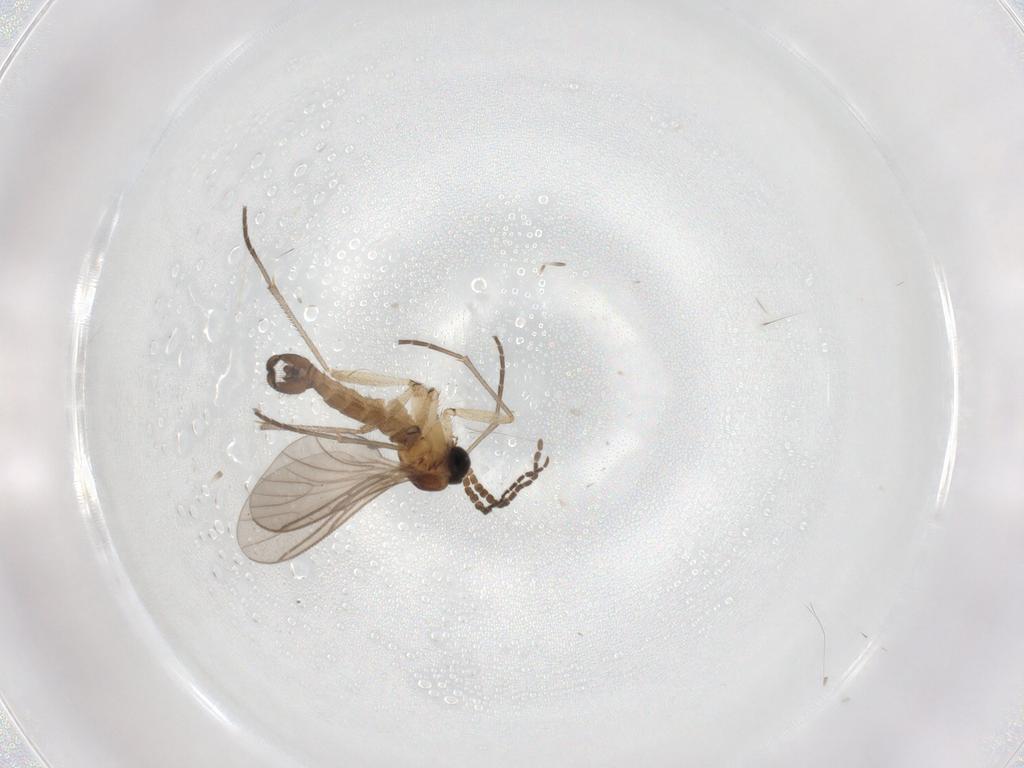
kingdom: Animalia
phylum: Arthropoda
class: Insecta
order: Diptera
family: Sciaridae
